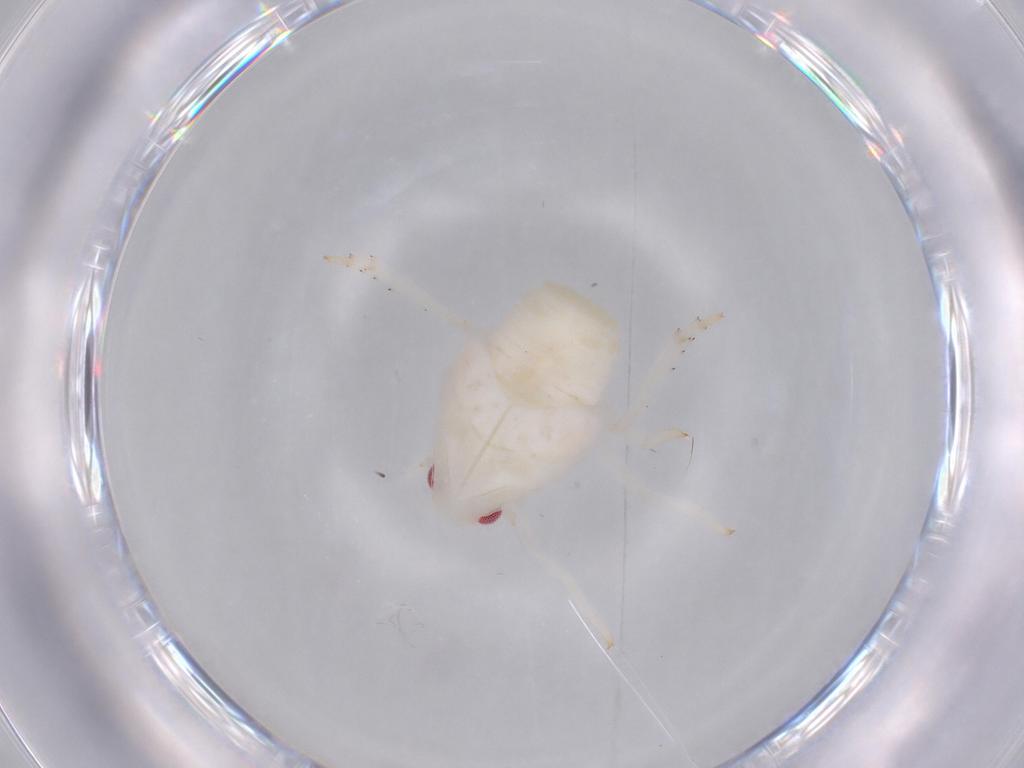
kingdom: Animalia
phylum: Arthropoda
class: Insecta
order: Hemiptera
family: Flatidae
